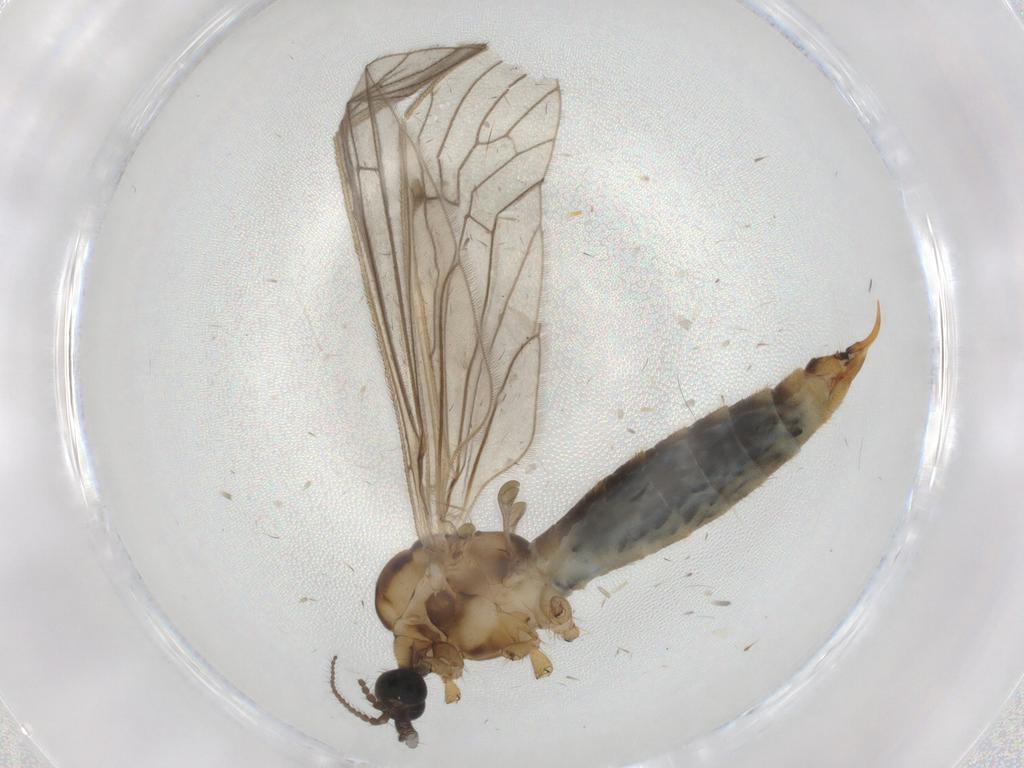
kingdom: Animalia
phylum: Arthropoda
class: Insecta
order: Diptera
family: Limoniidae
